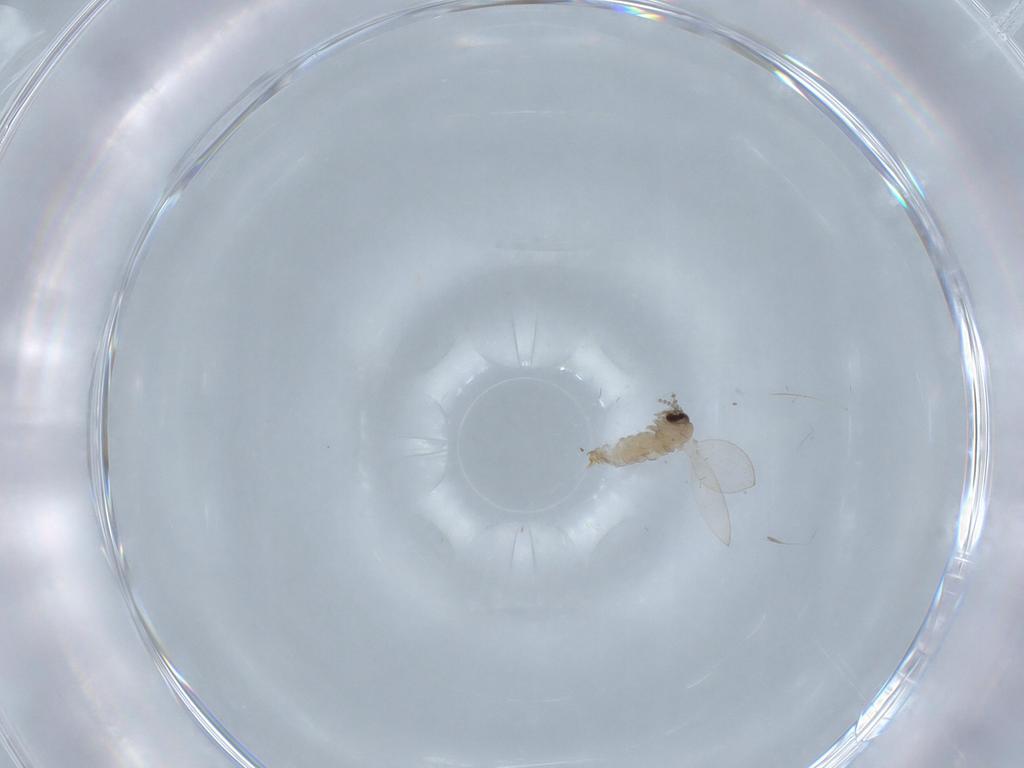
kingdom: Animalia
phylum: Arthropoda
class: Insecta
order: Diptera
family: Psychodidae
